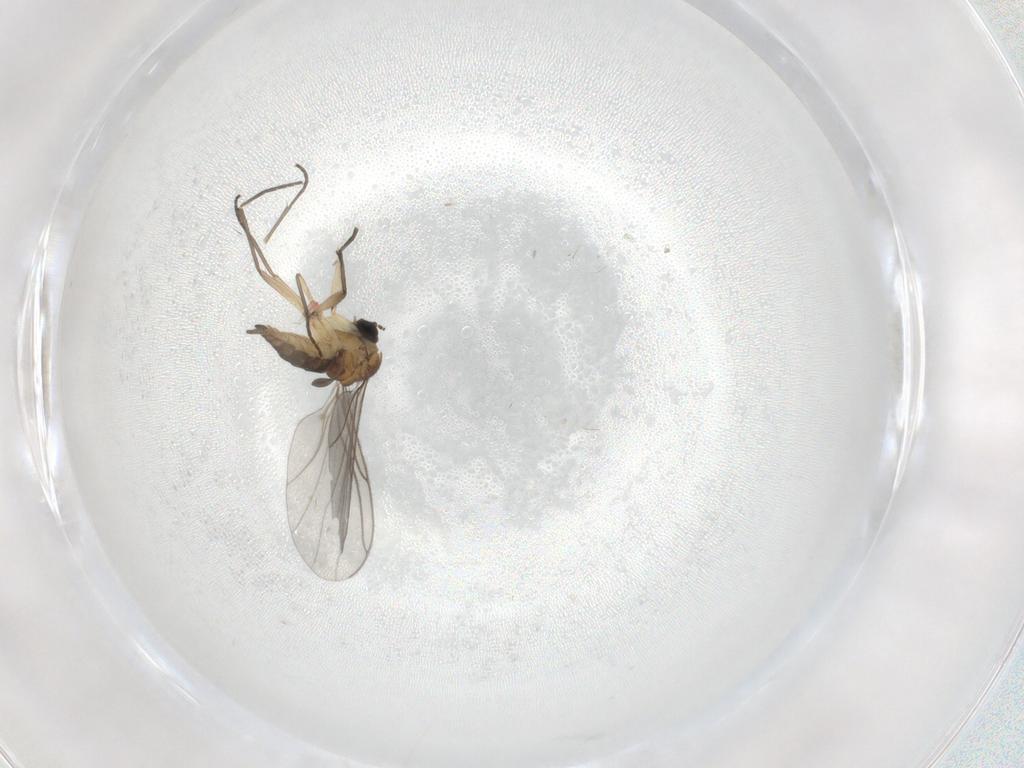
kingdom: Animalia
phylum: Arthropoda
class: Insecta
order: Diptera
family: Sciaridae
